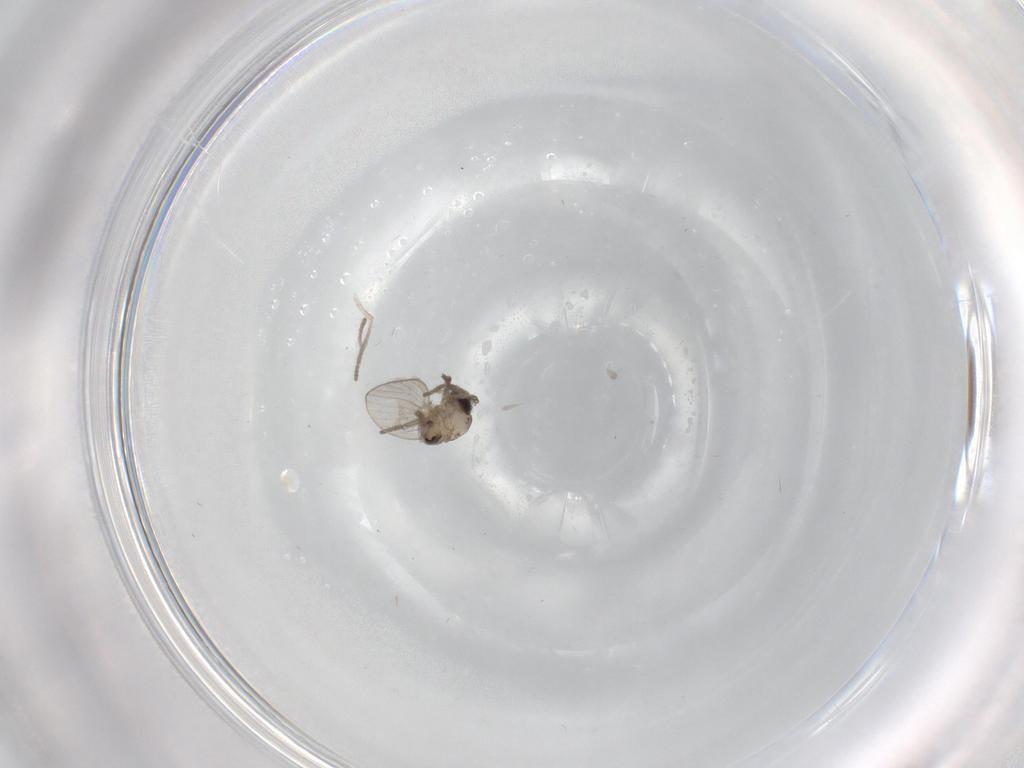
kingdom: Animalia
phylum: Arthropoda
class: Insecta
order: Diptera
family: Psychodidae
